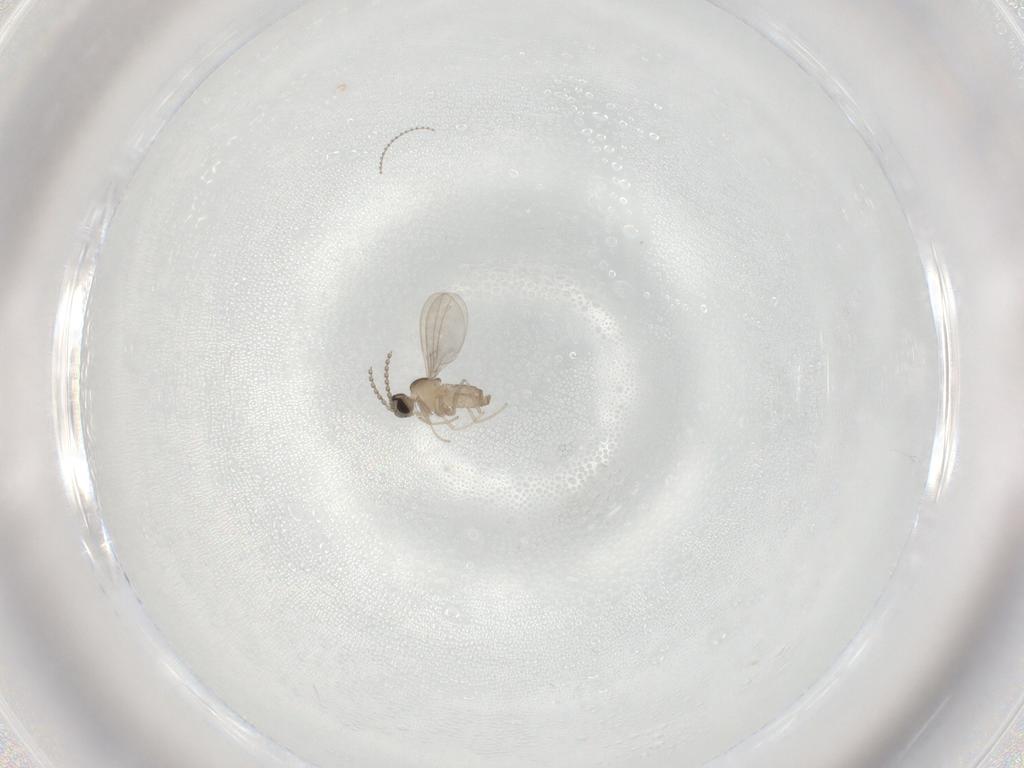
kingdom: Animalia
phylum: Arthropoda
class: Insecta
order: Diptera
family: Cecidomyiidae
